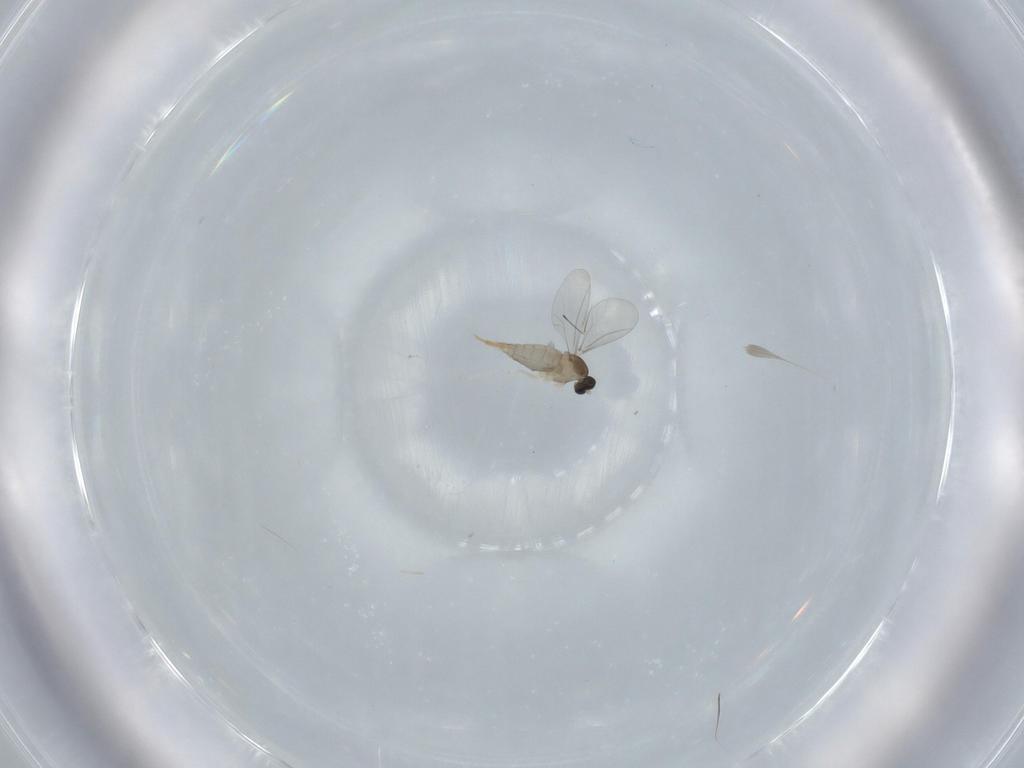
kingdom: Animalia
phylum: Arthropoda
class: Insecta
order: Diptera
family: Cecidomyiidae
